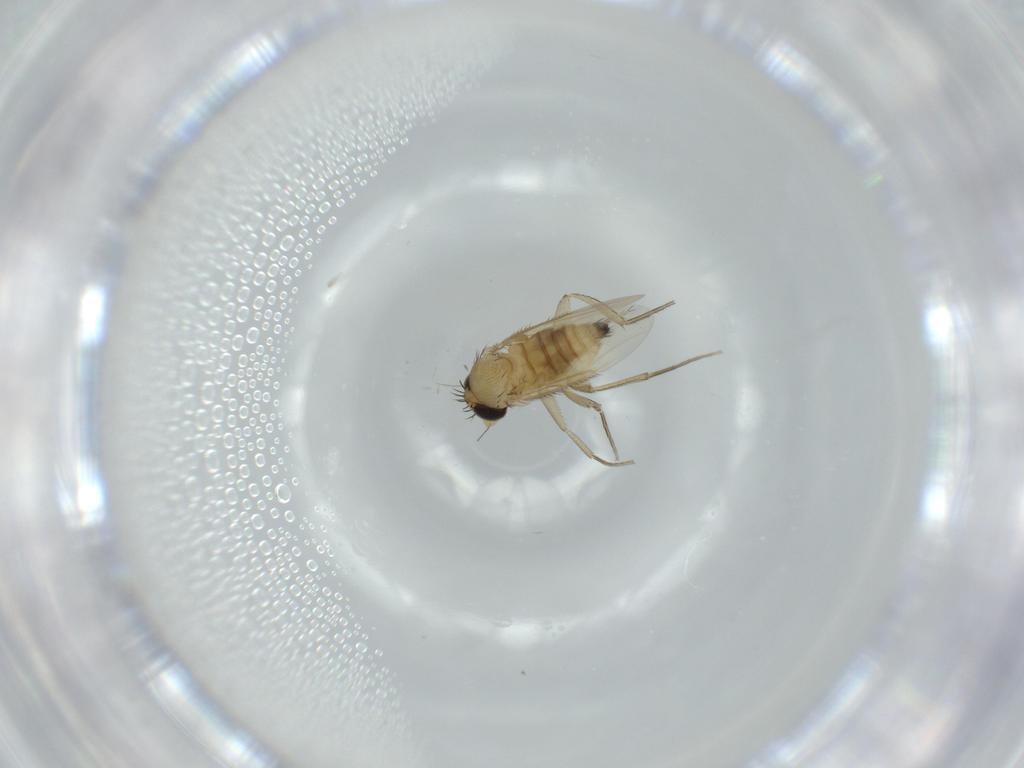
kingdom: Animalia
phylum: Arthropoda
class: Insecta
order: Diptera
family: Phoridae
